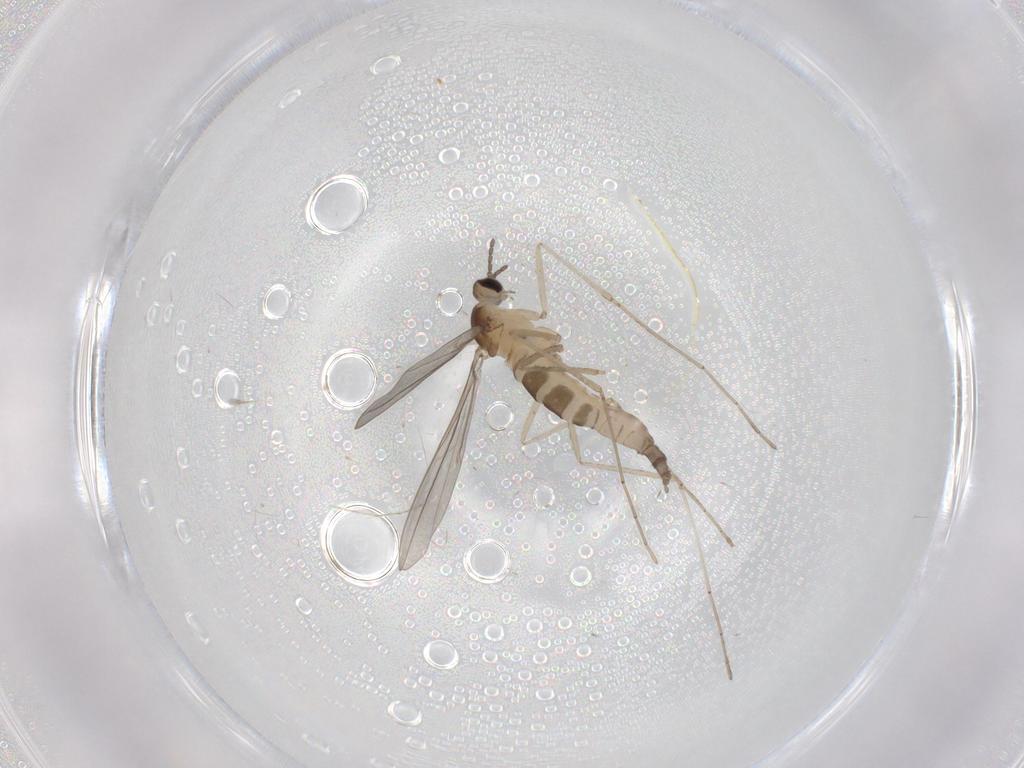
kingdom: Animalia
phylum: Arthropoda
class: Insecta
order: Diptera
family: Cecidomyiidae
